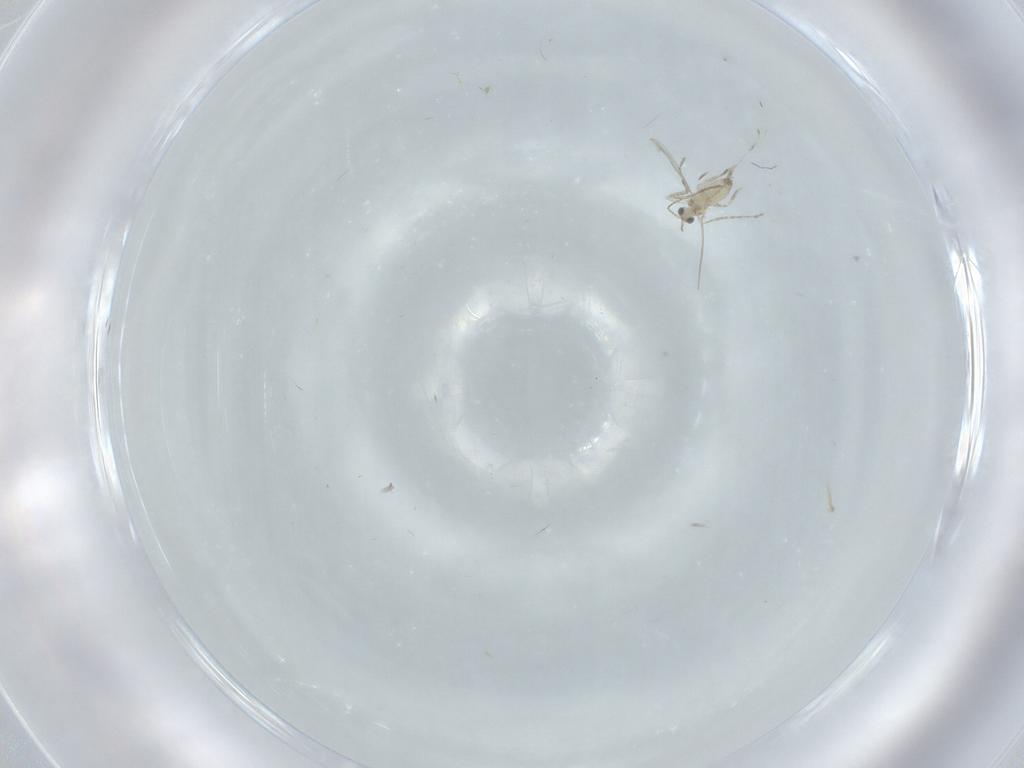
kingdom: Animalia
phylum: Arthropoda
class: Insecta
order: Diptera
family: Cecidomyiidae
